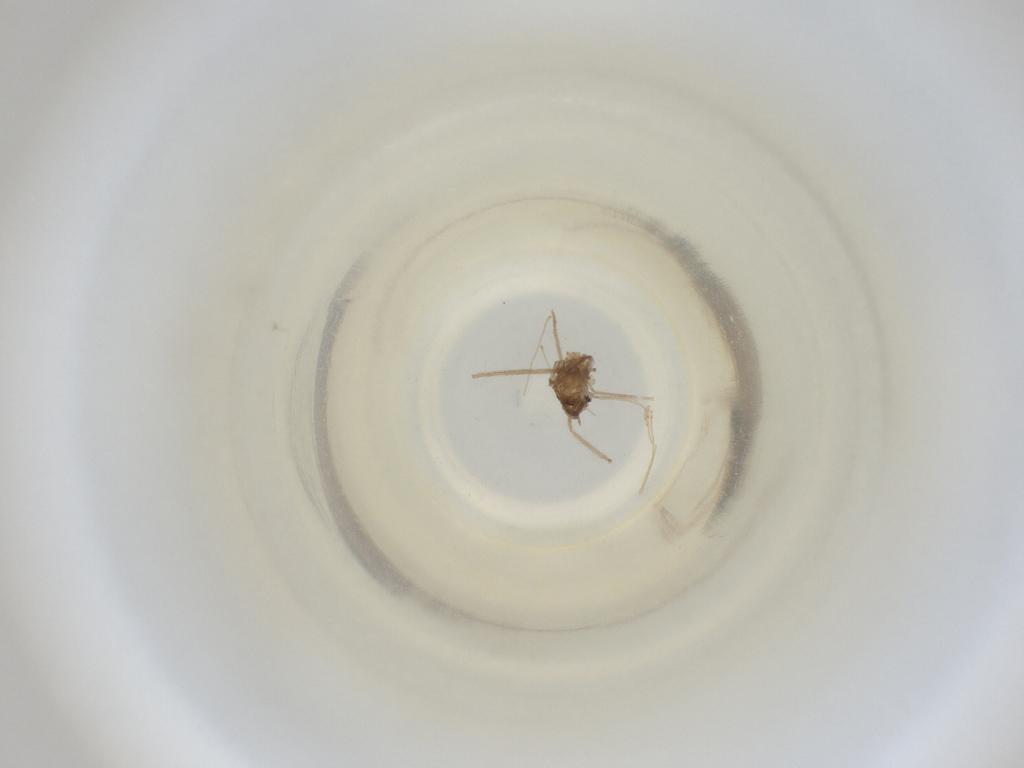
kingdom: Animalia
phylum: Arthropoda
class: Insecta
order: Diptera
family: Cecidomyiidae
